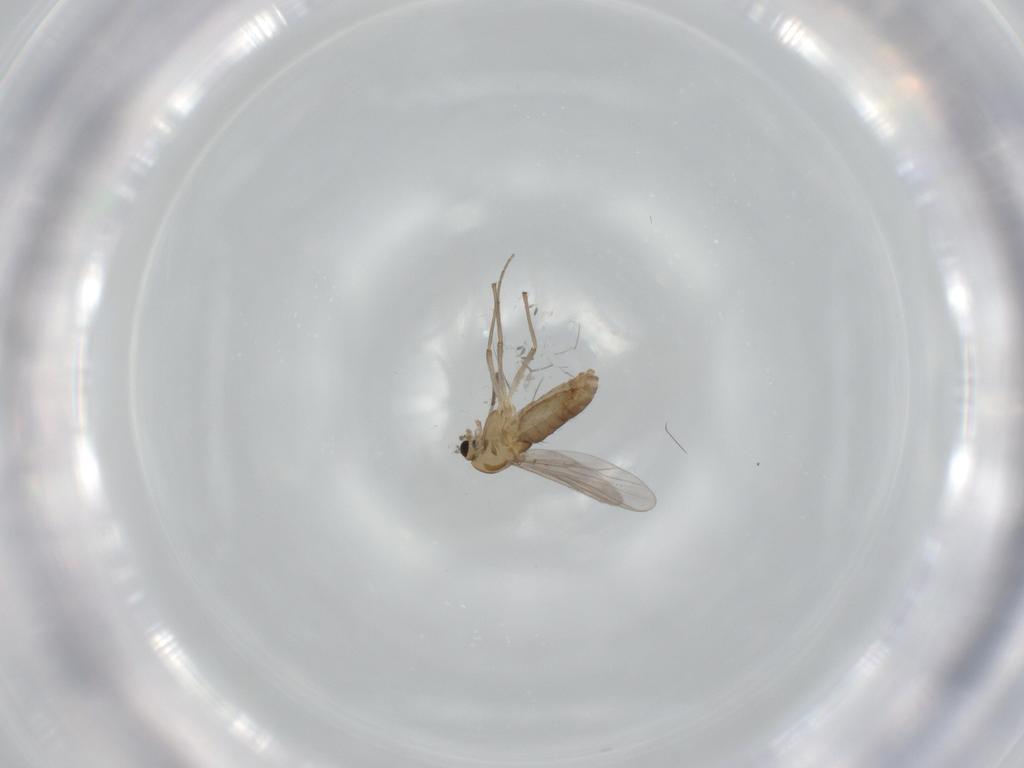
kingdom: Animalia
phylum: Arthropoda
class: Insecta
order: Diptera
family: Chironomidae
